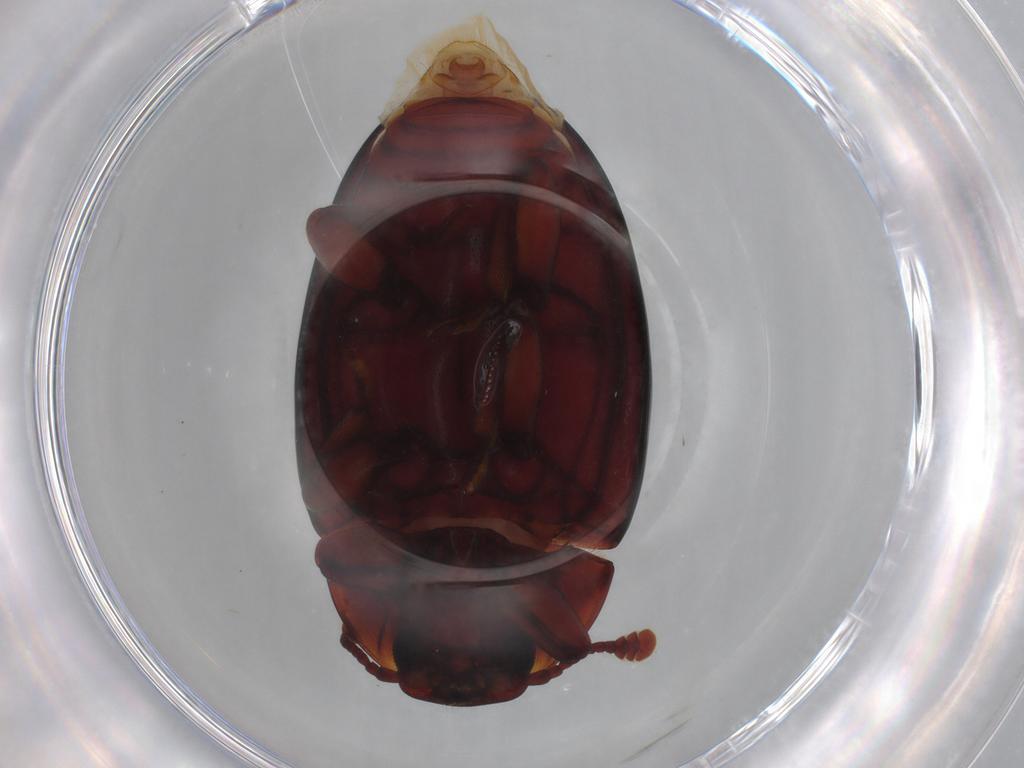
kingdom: Animalia
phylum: Arthropoda
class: Insecta
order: Coleoptera
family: Zopheridae
